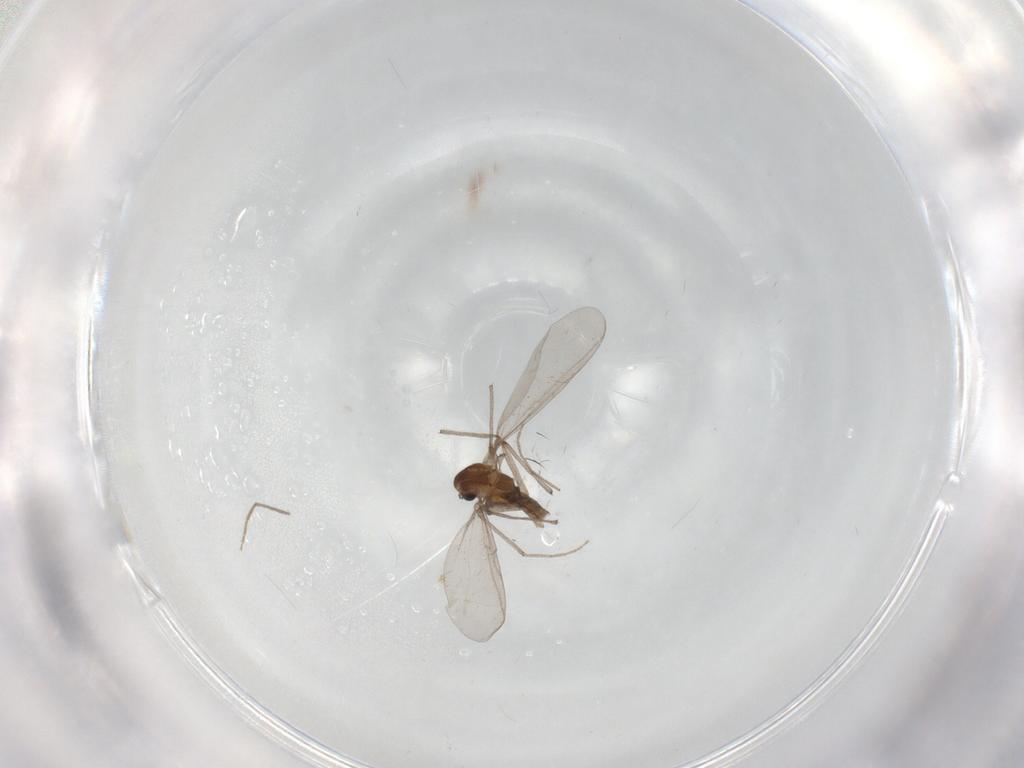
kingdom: Animalia
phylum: Arthropoda
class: Insecta
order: Diptera
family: Chironomidae
